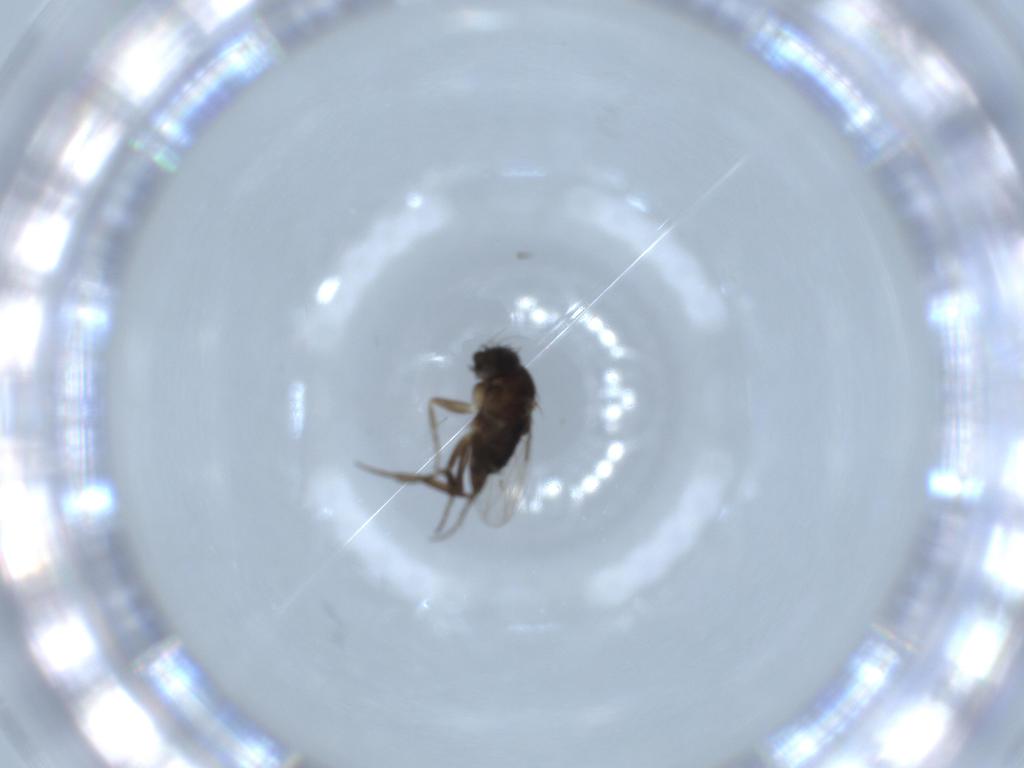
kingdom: Animalia
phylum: Arthropoda
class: Insecta
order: Diptera
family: Phoridae
